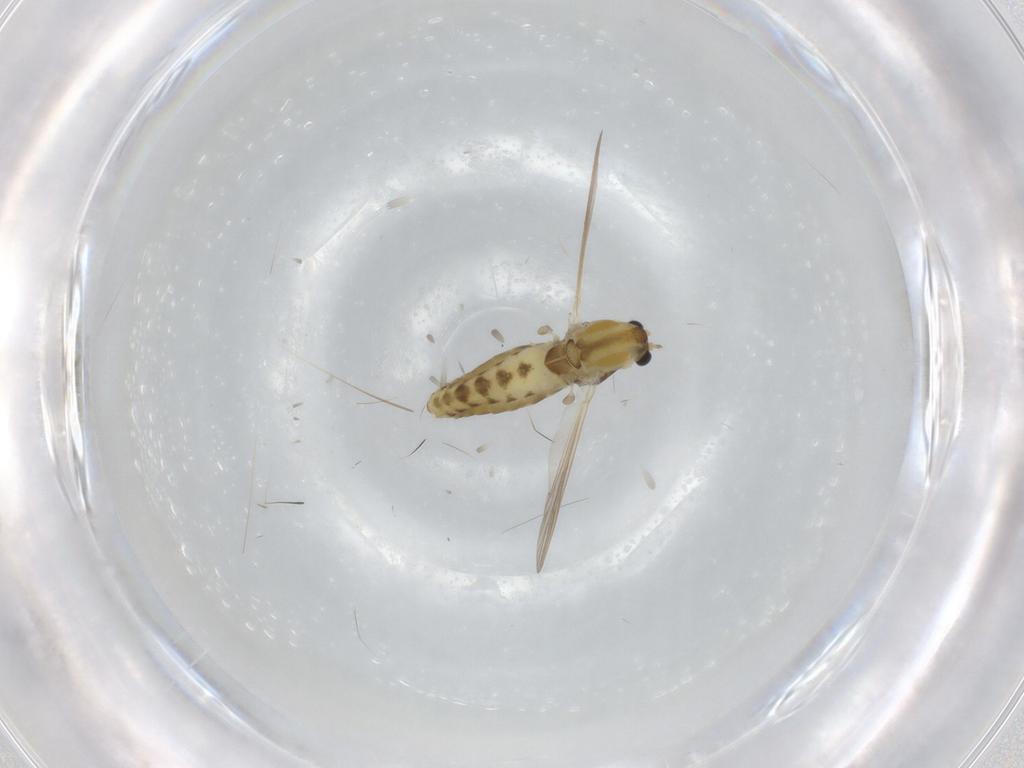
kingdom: Animalia
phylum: Arthropoda
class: Insecta
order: Diptera
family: Chironomidae
